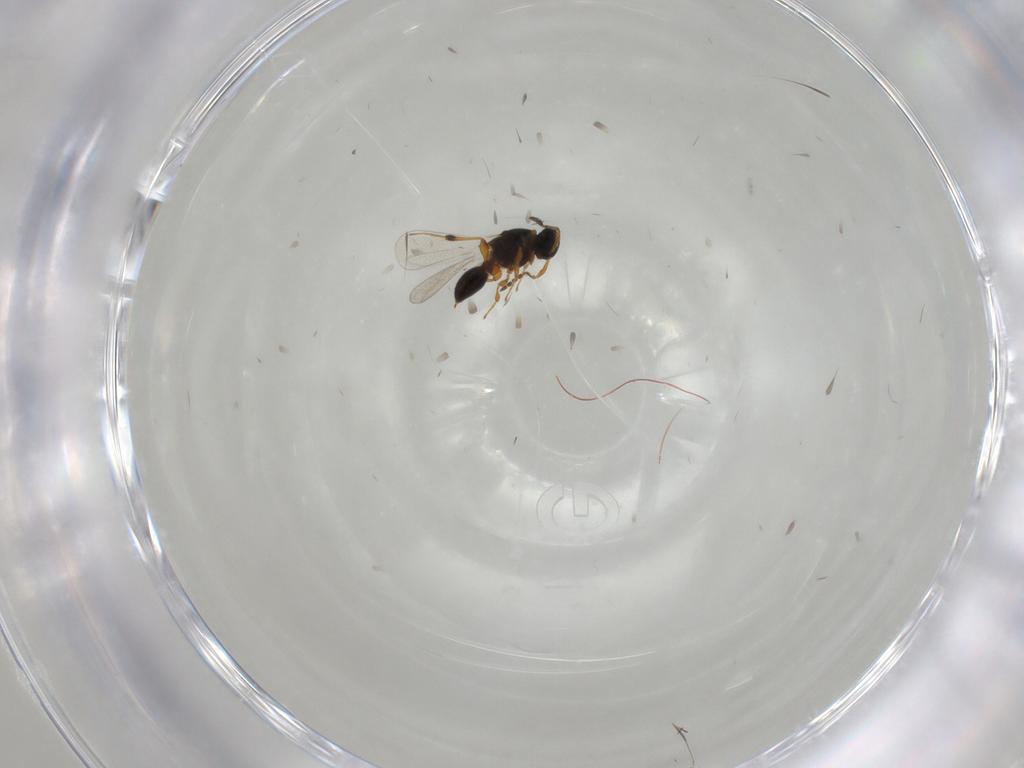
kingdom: Animalia
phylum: Arthropoda
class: Insecta
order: Hymenoptera
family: Platygastridae
